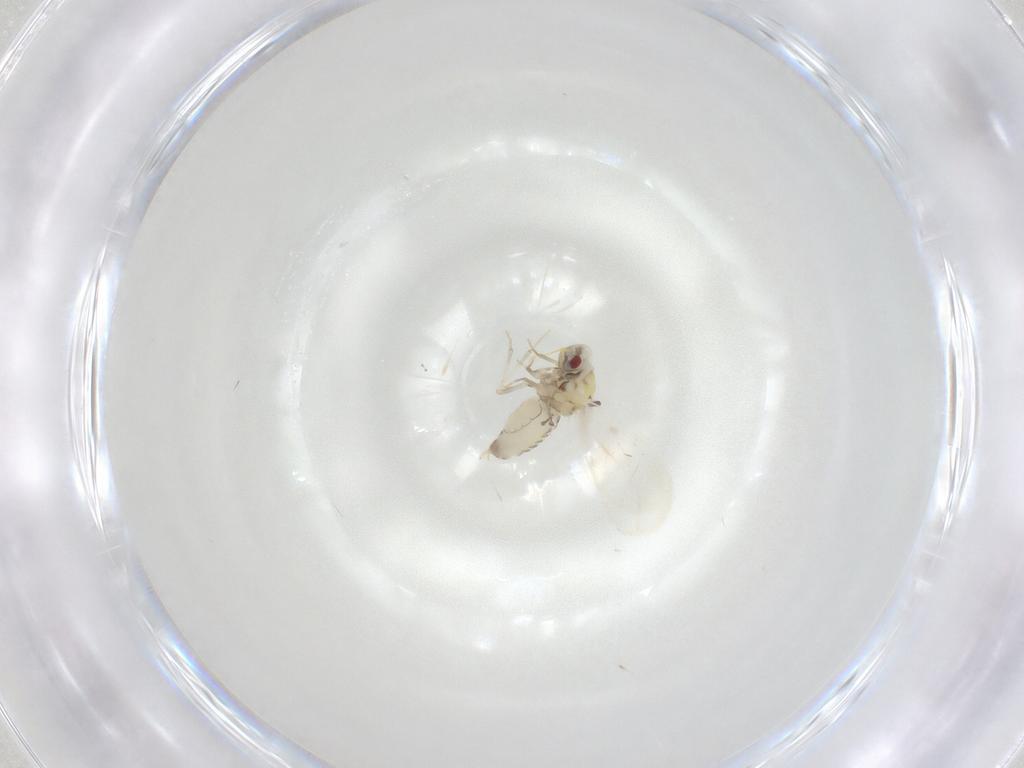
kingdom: Animalia
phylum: Arthropoda
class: Insecta
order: Hemiptera
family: Aleyrodidae
